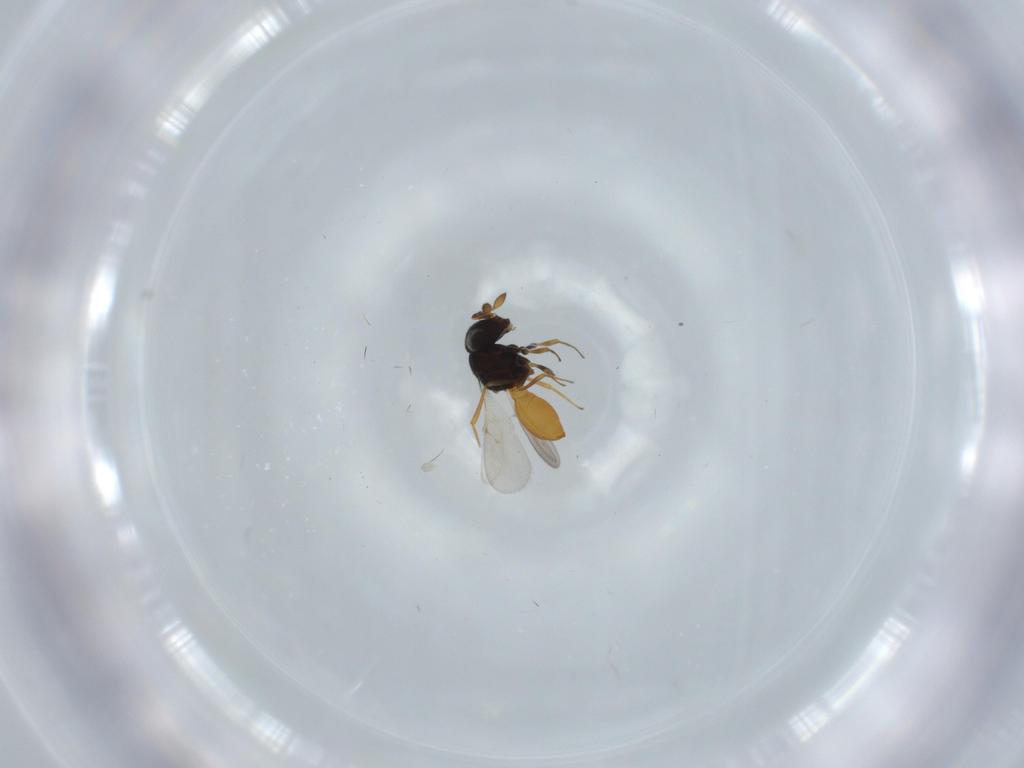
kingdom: Animalia
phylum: Arthropoda
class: Insecta
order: Hymenoptera
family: Scelionidae
